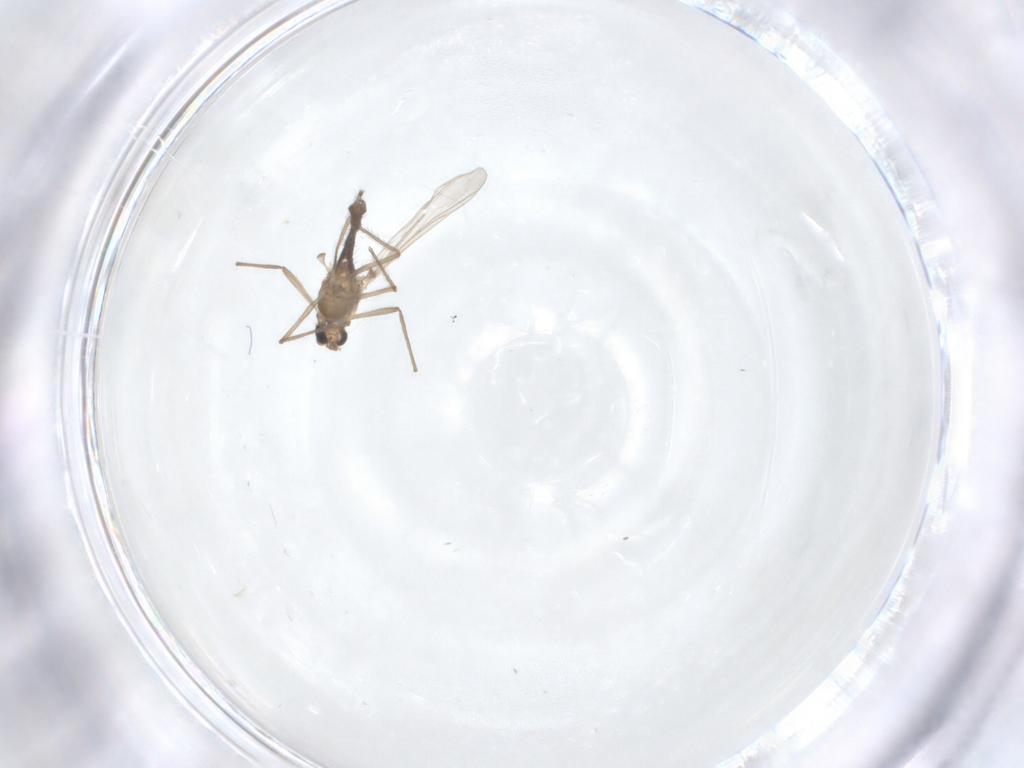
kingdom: Animalia
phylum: Arthropoda
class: Insecta
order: Diptera
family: Chironomidae
